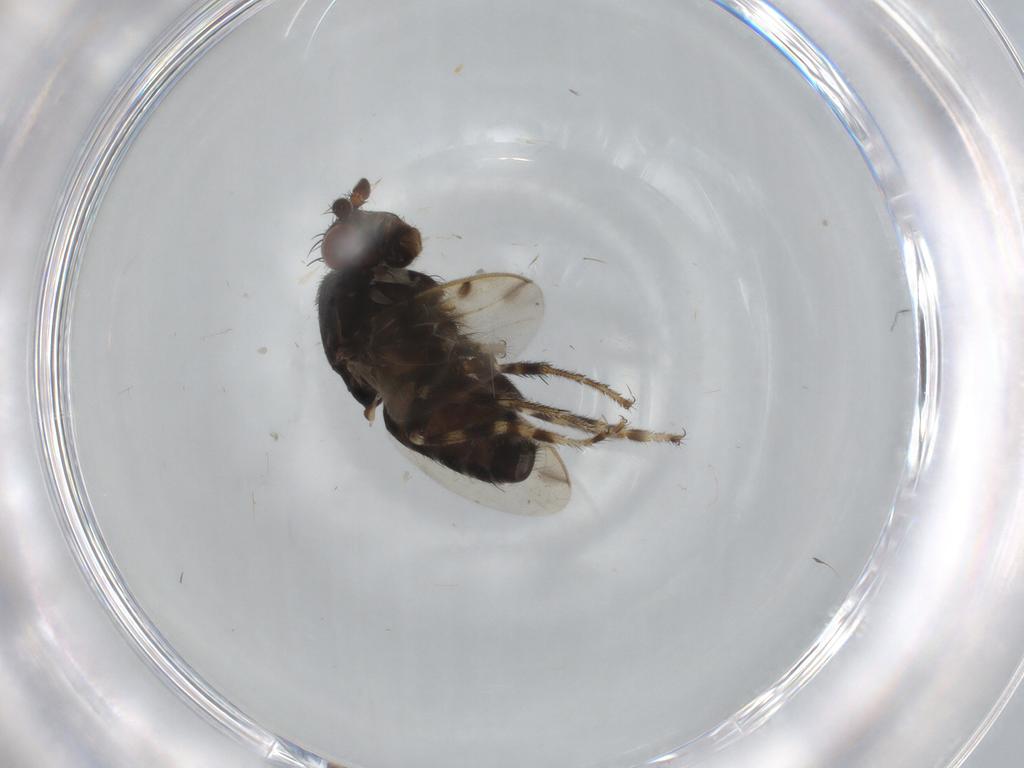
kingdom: Animalia
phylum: Arthropoda
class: Insecta
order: Diptera
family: Sphaeroceridae
